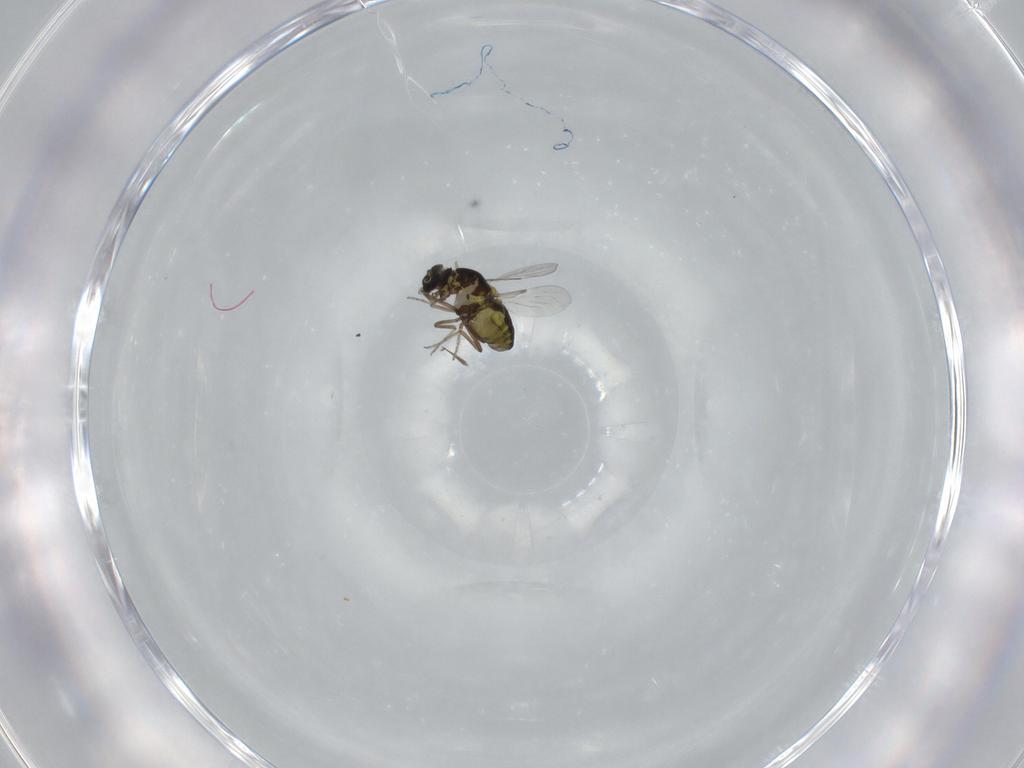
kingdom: Animalia
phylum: Arthropoda
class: Insecta
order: Diptera
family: Ceratopogonidae
